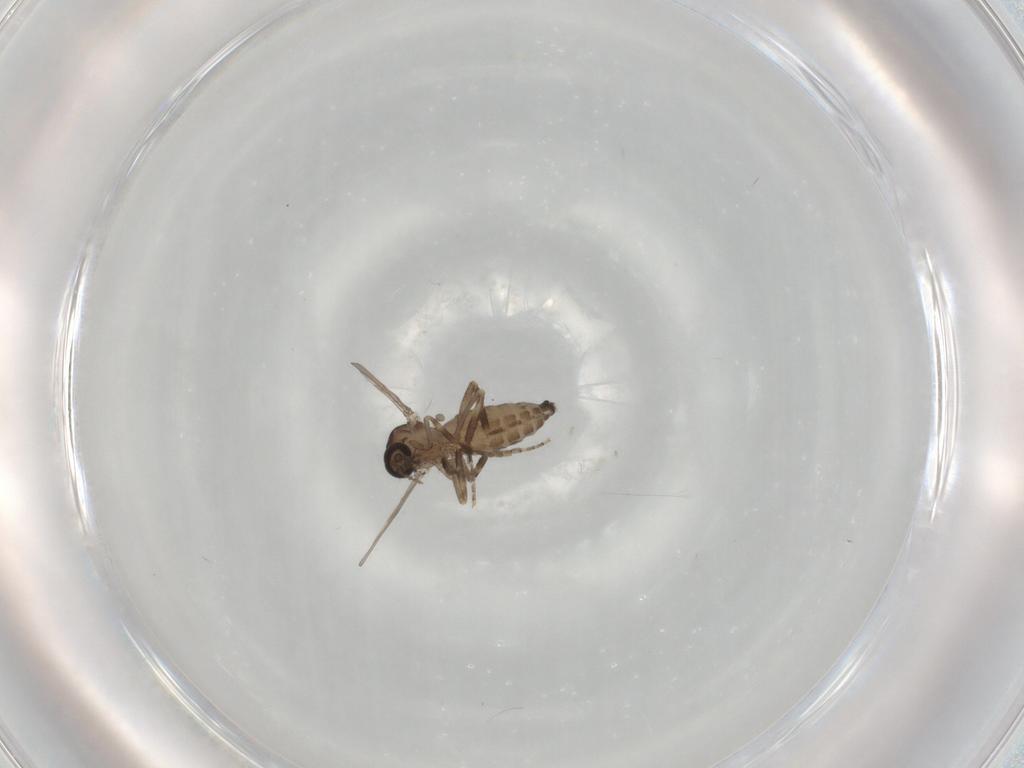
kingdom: Animalia
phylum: Arthropoda
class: Insecta
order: Diptera
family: Ceratopogonidae
